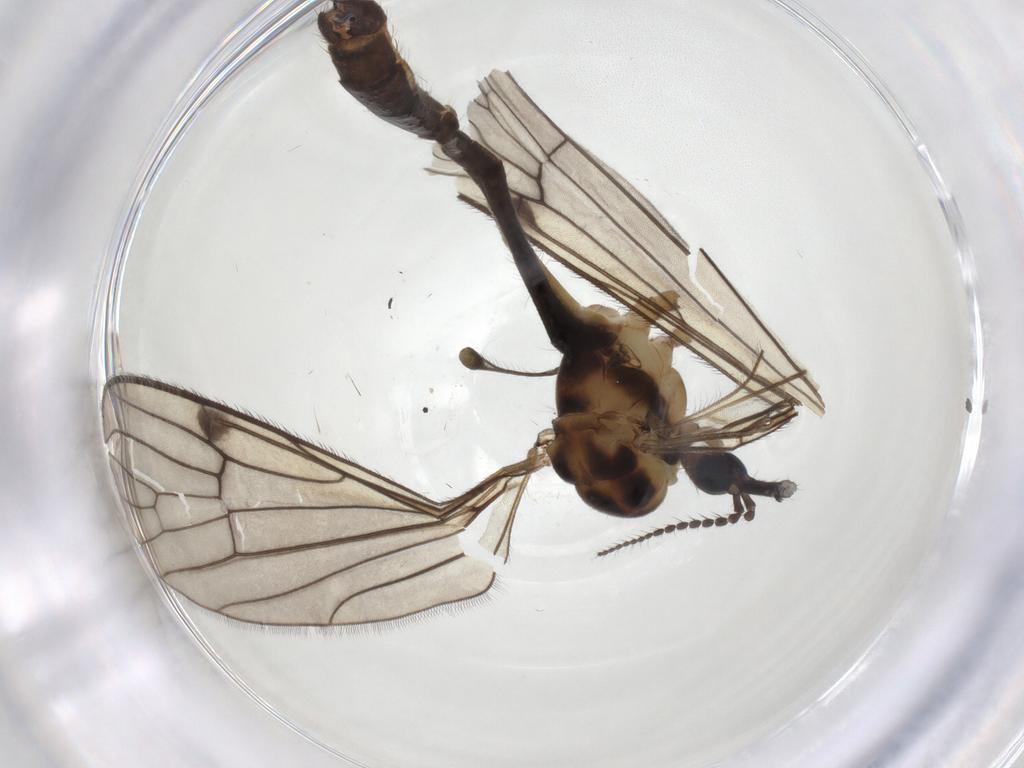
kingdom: Animalia
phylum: Arthropoda
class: Insecta
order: Diptera
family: Limoniidae
